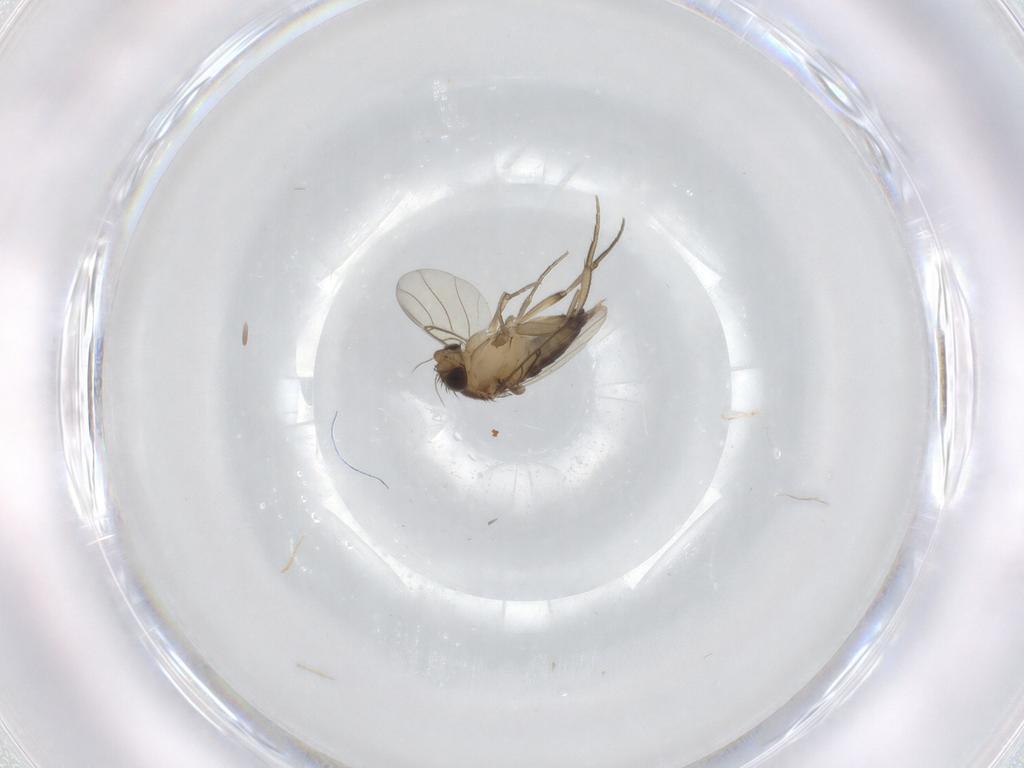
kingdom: Animalia
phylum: Arthropoda
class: Insecta
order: Diptera
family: Phoridae
